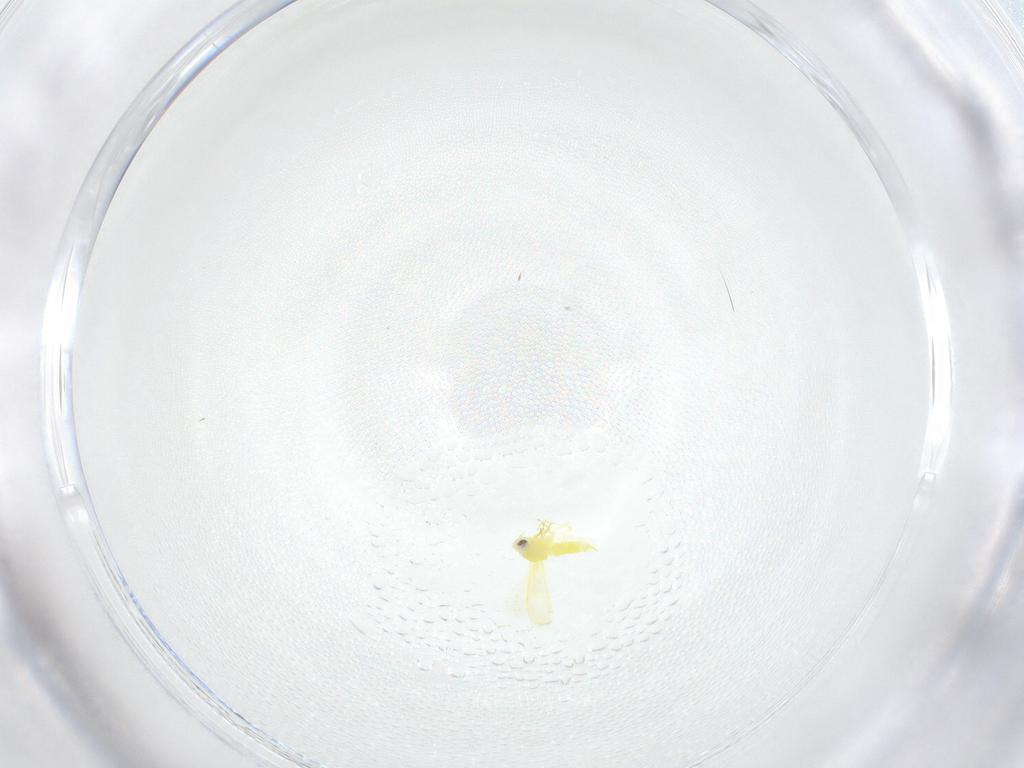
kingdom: Animalia
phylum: Arthropoda
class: Insecta
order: Hemiptera
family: Aleyrodidae
